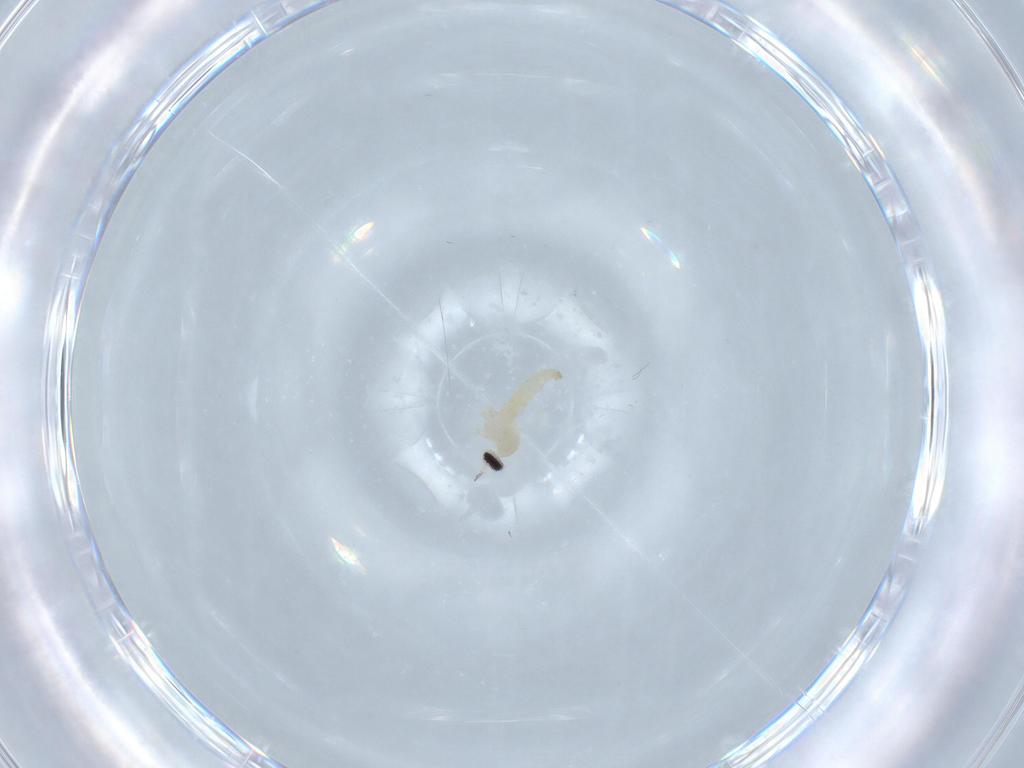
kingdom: Animalia
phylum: Arthropoda
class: Insecta
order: Diptera
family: Cecidomyiidae
